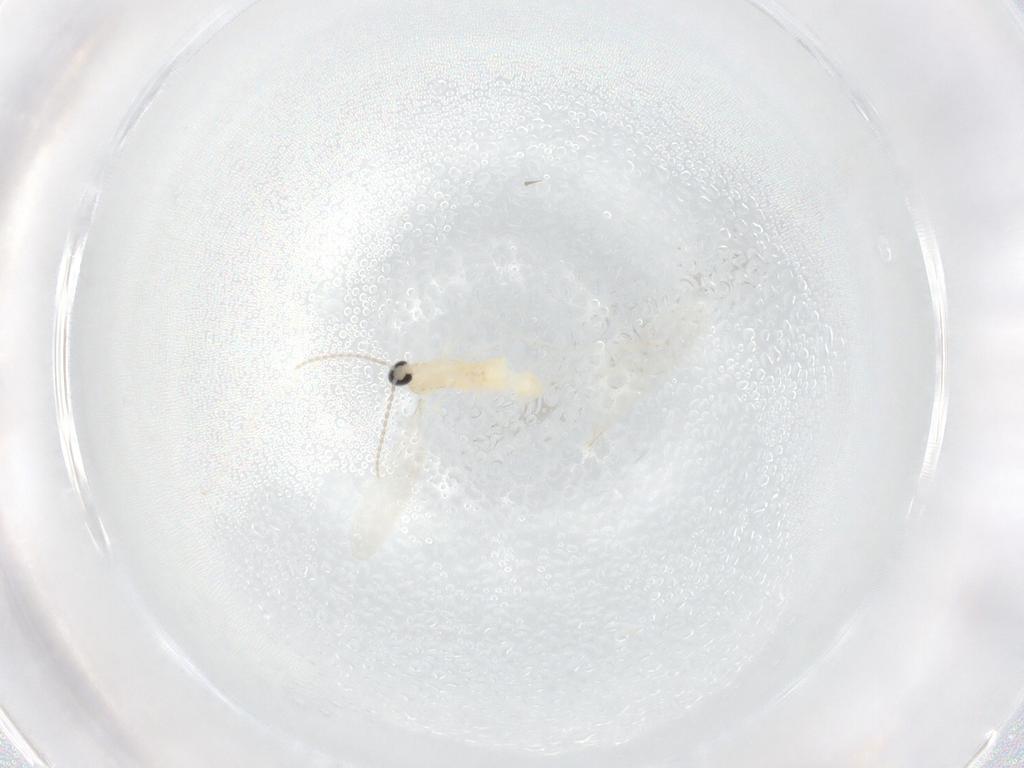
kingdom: Animalia
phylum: Arthropoda
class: Insecta
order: Diptera
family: Cecidomyiidae
